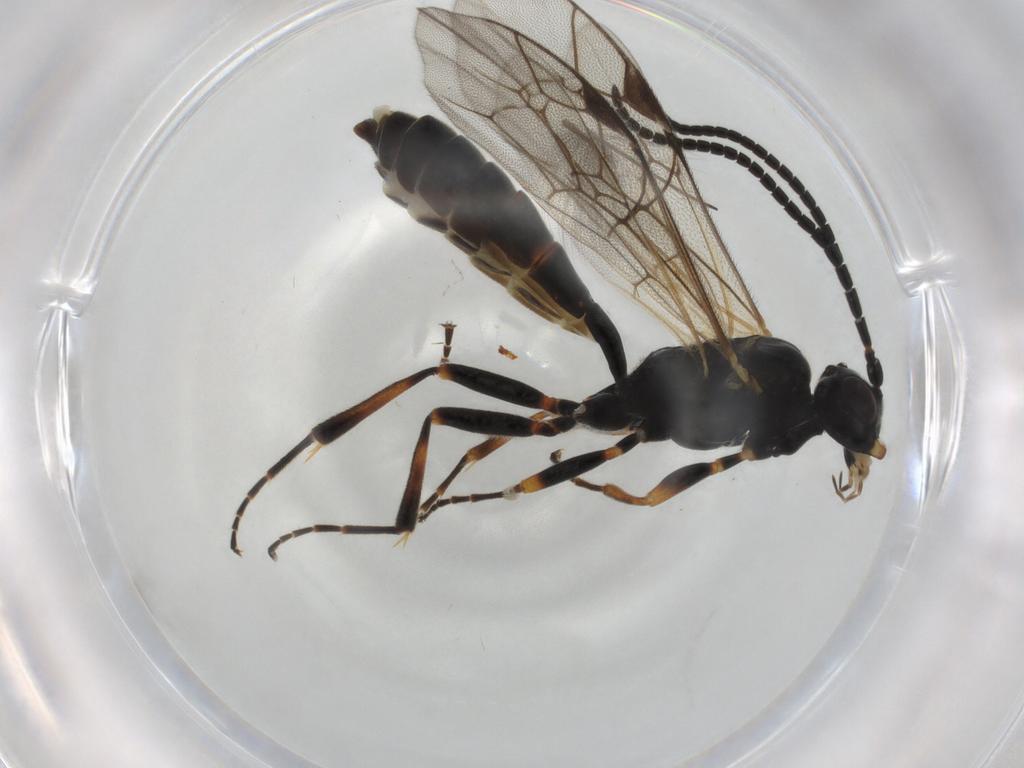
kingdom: Animalia
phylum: Arthropoda
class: Insecta
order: Hymenoptera
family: Ichneumonidae
